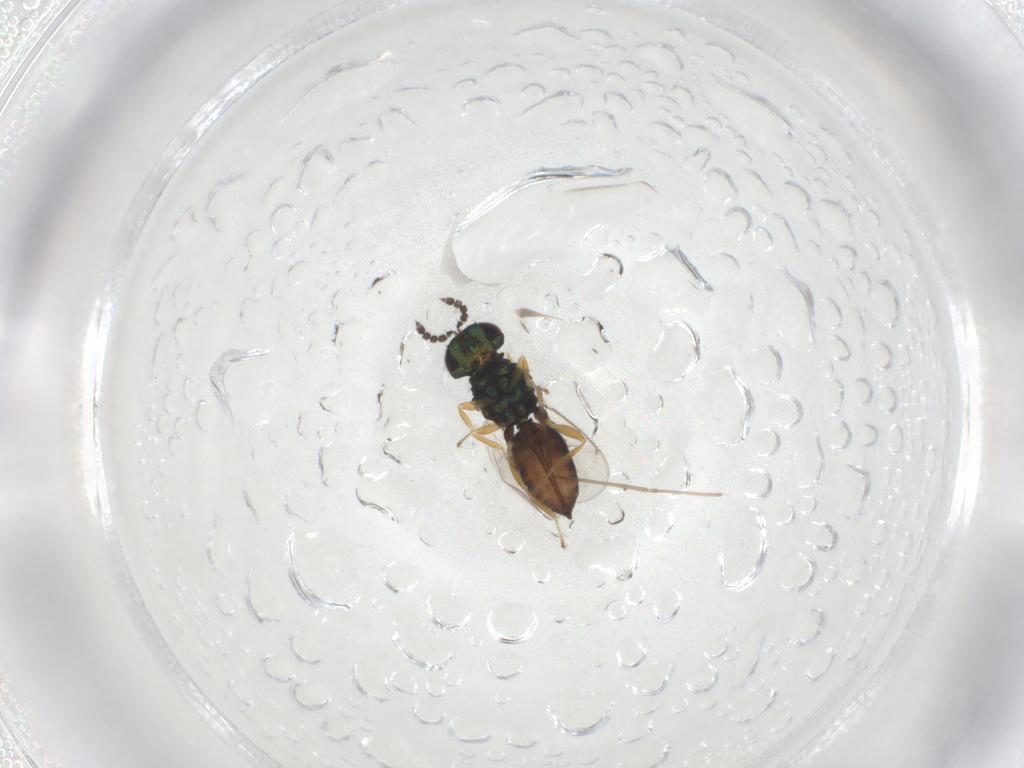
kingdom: Animalia
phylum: Arthropoda
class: Insecta
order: Hymenoptera
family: Eulophidae
